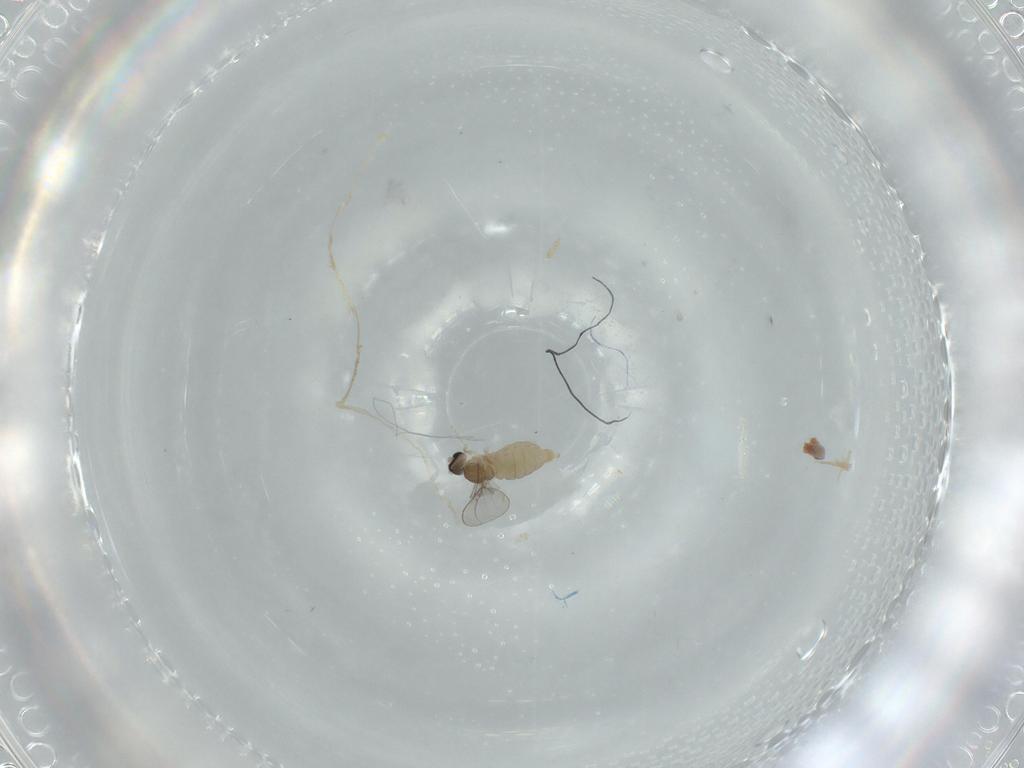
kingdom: Animalia
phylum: Arthropoda
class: Insecta
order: Diptera
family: Cecidomyiidae
